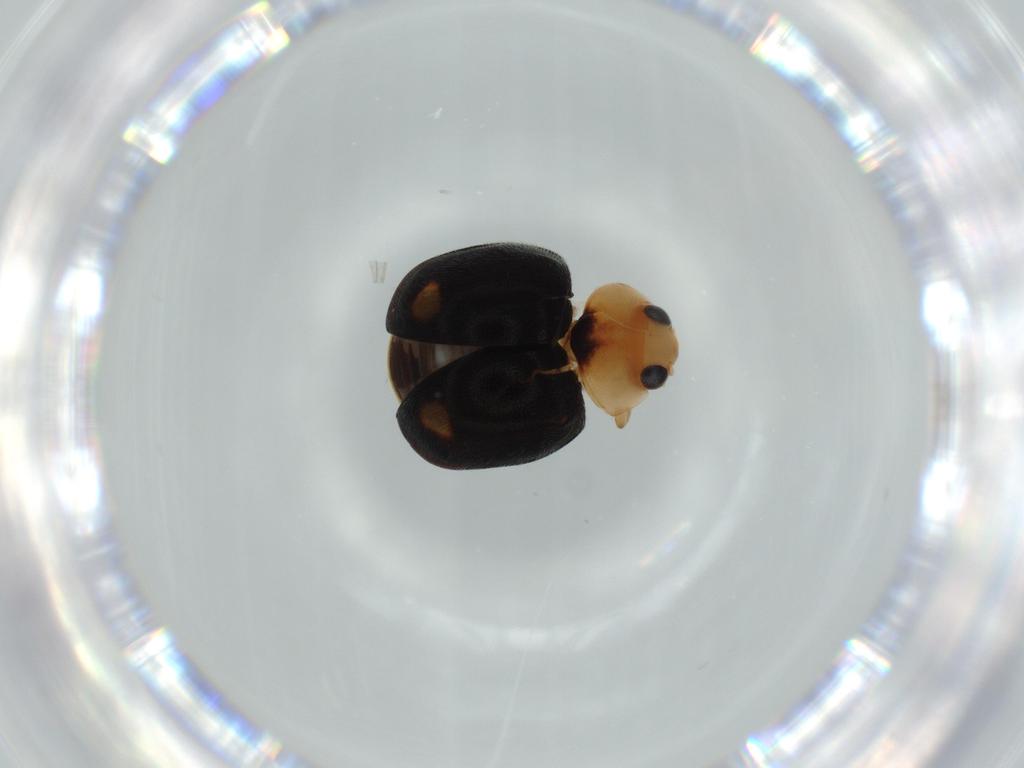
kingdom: Animalia
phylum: Arthropoda
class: Insecta
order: Coleoptera
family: Coccinellidae
